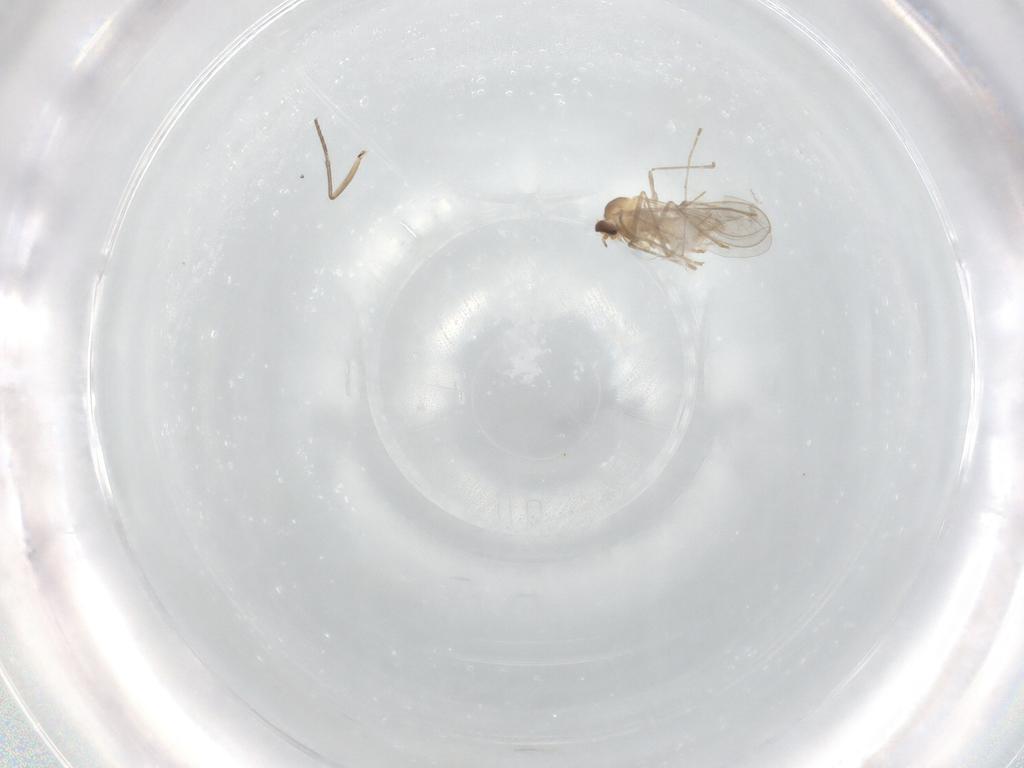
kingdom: Animalia
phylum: Arthropoda
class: Insecta
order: Diptera
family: Cecidomyiidae
